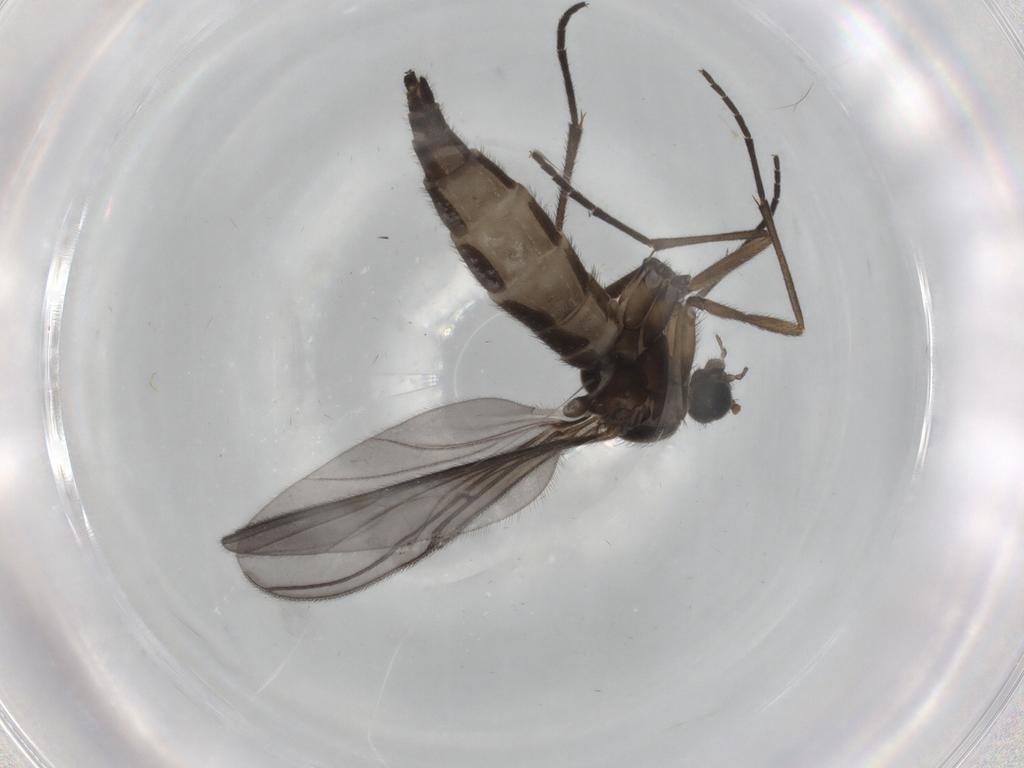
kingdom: Animalia
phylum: Arthropoda
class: Insecta
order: Diptera
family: Sciaridae
